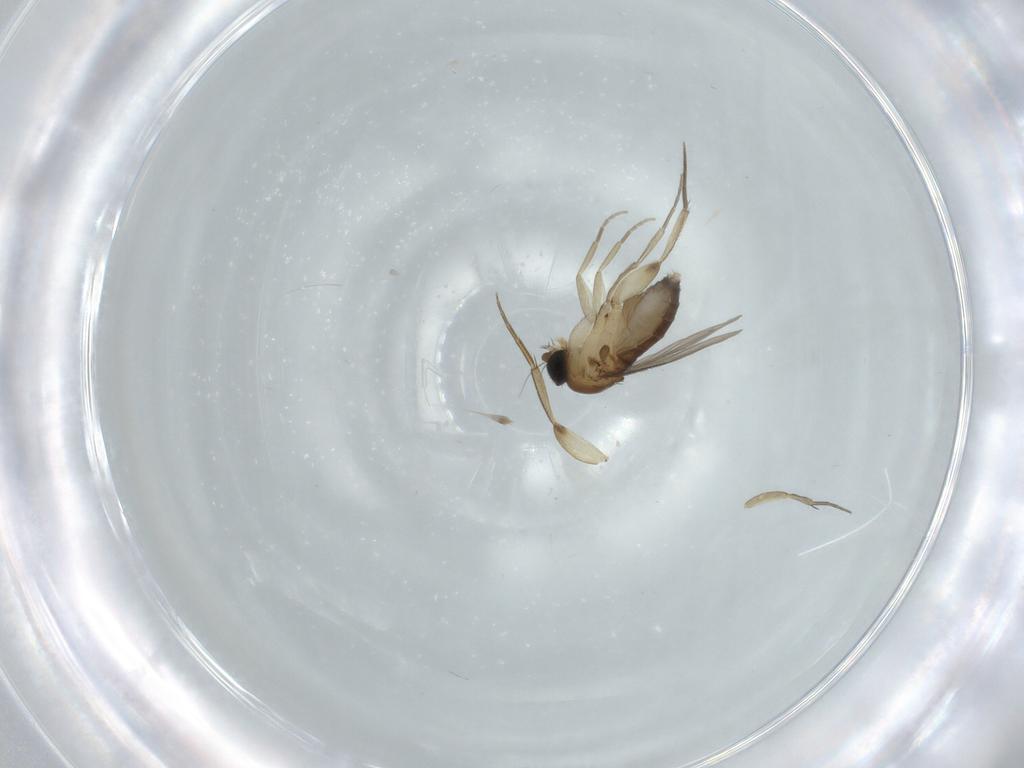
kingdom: Animalia
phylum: Arthropoda
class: Insecta
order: Diptera
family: Phoridae
